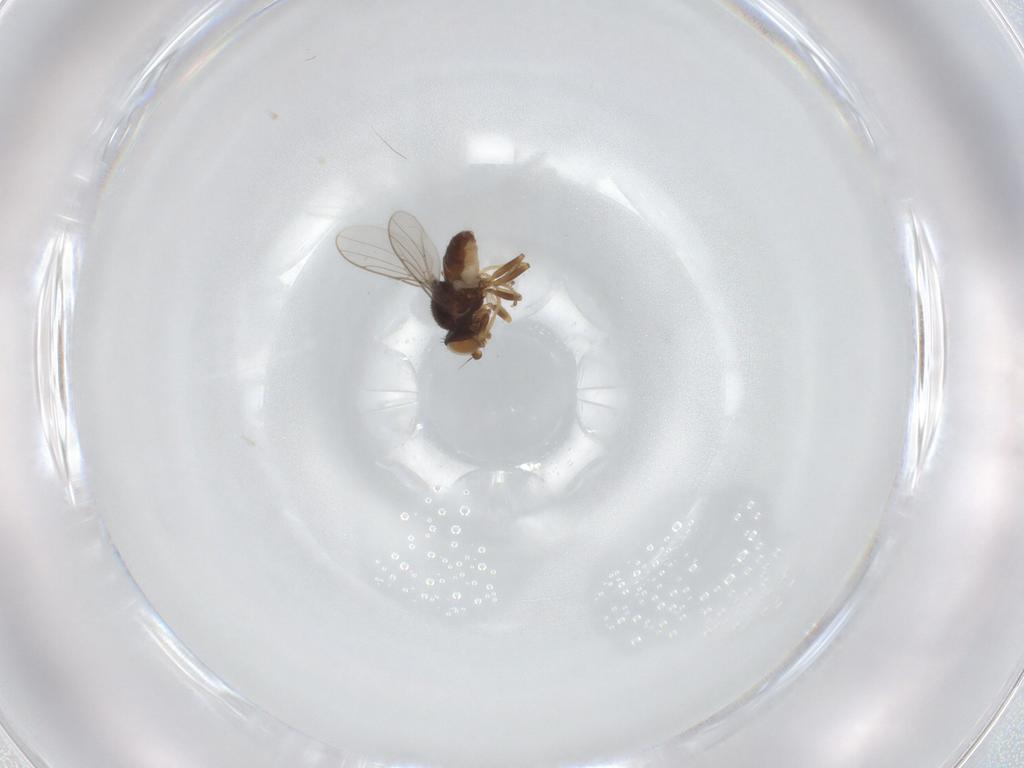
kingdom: Animalia
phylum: Arthropoda
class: Insecta
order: Diptera
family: Chloropidae
